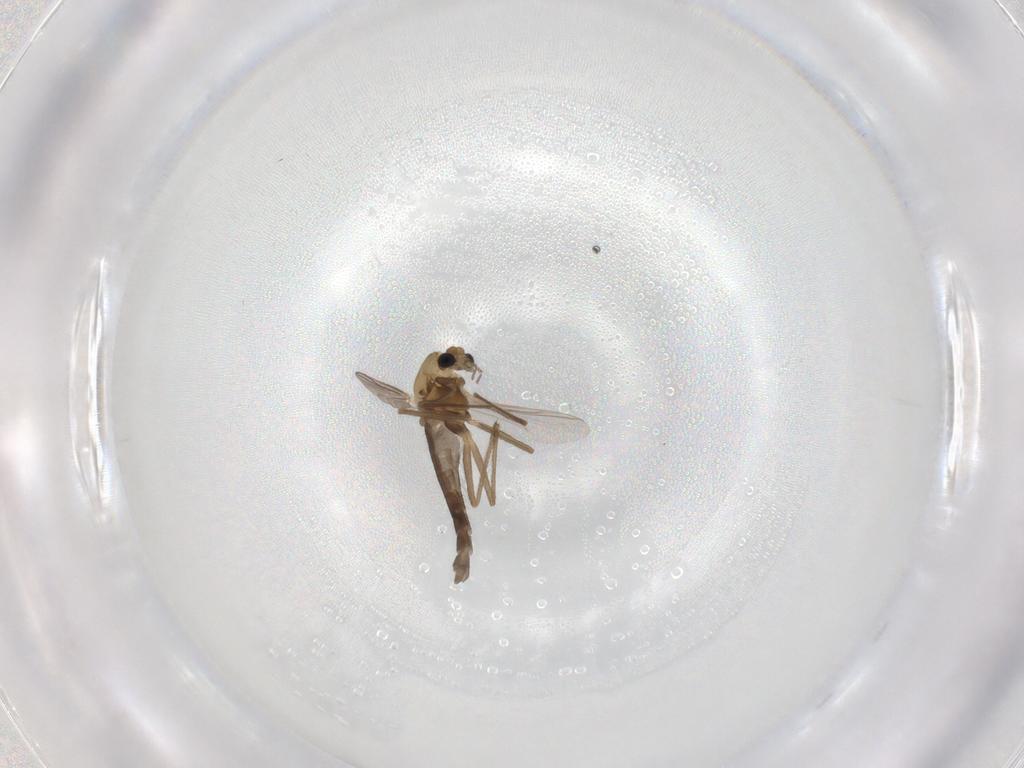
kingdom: Animalia
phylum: Arthropoda
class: Insecta
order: Diptera
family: Chironomidae
